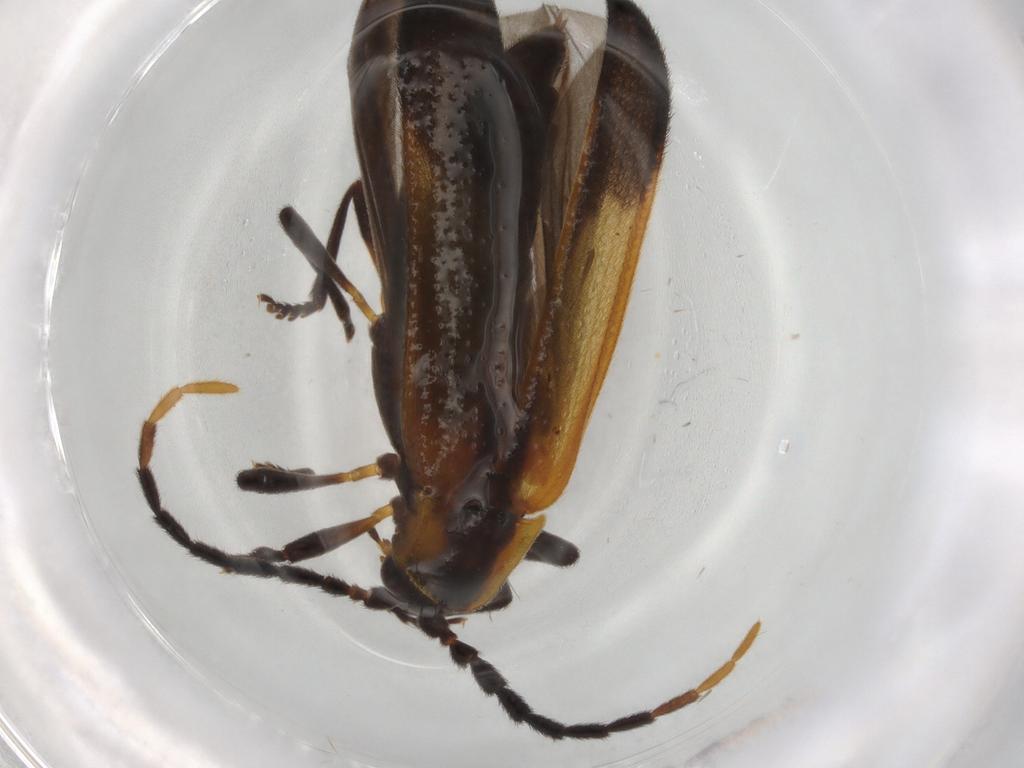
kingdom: Animalia
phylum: Arthropoda
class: Insecta
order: Coleoptera
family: Lycidae
